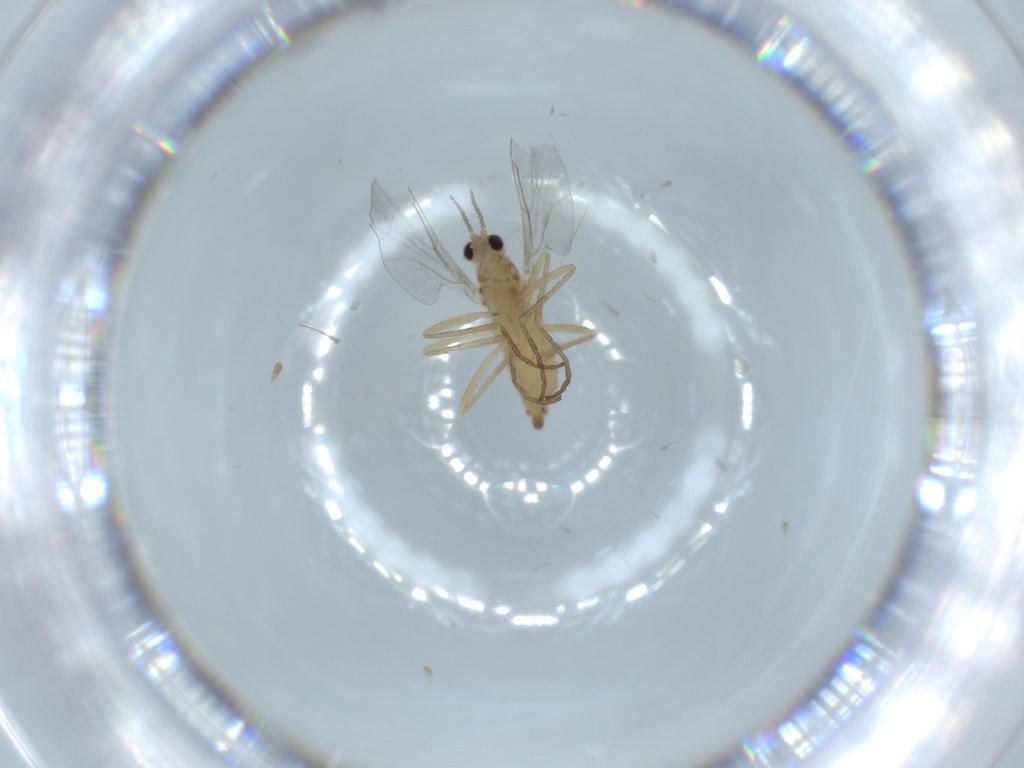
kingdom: Animalia
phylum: Arthropoda
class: Insecta
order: Diptera
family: Cecidomyiidae
